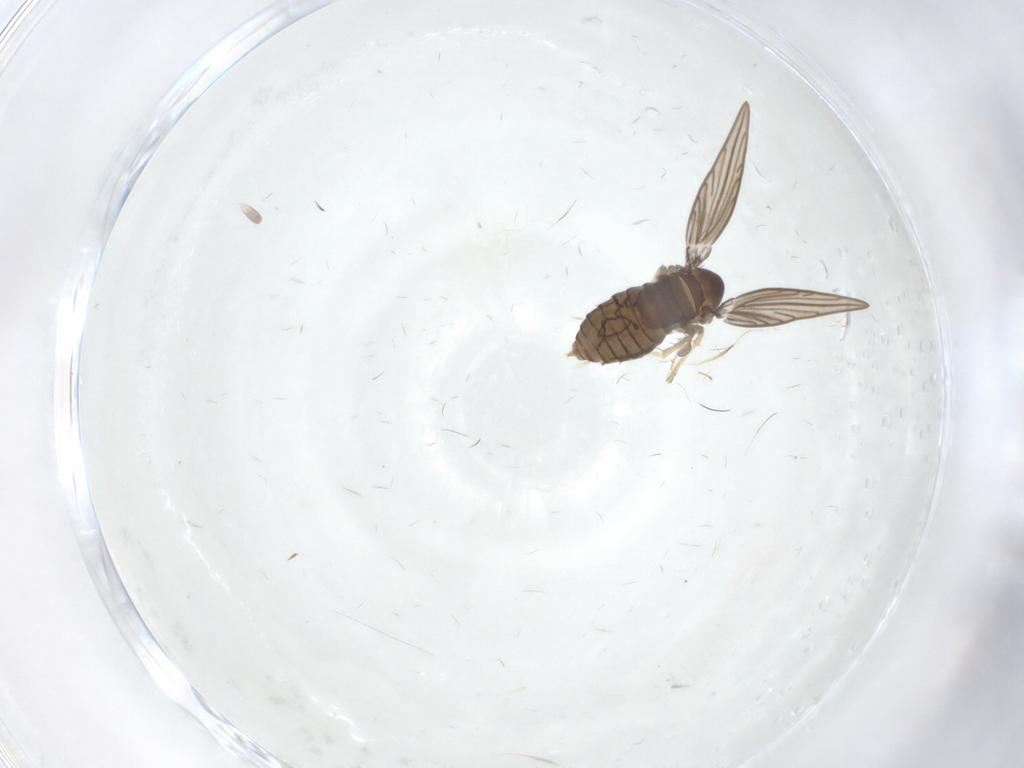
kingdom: Animalia
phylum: Arthropoda
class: Insecta
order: Diptera
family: Psychodidae
